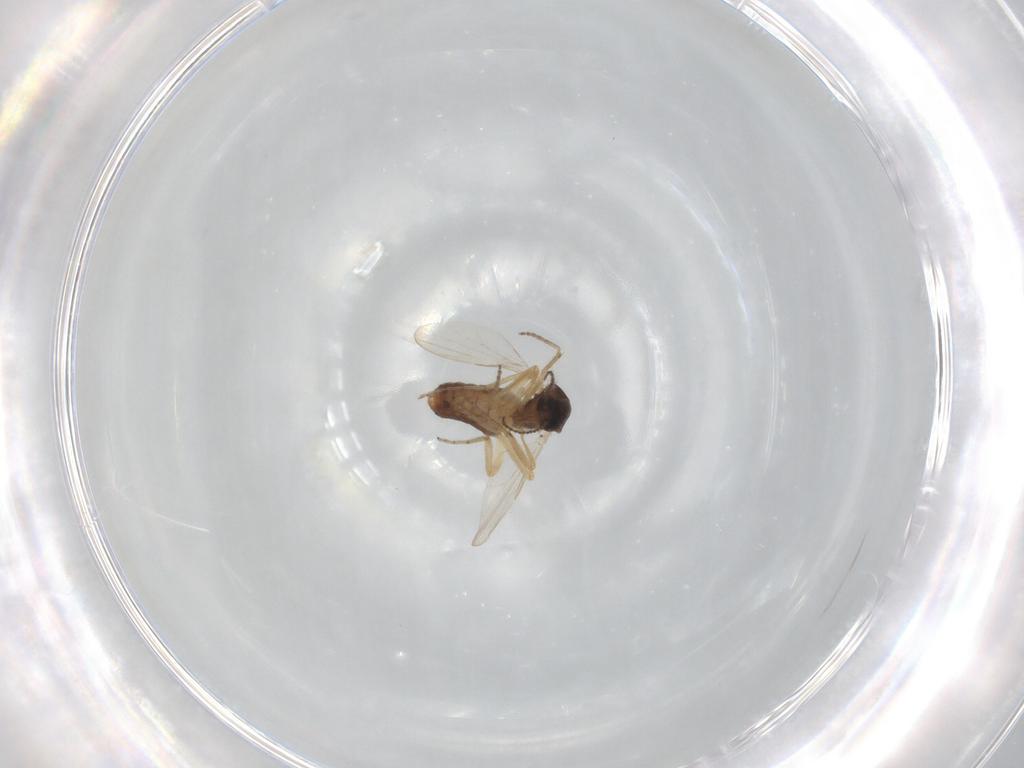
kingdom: Animalia
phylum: Arthropoda
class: Insecta
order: Diptera
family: Ceratopogonidae
